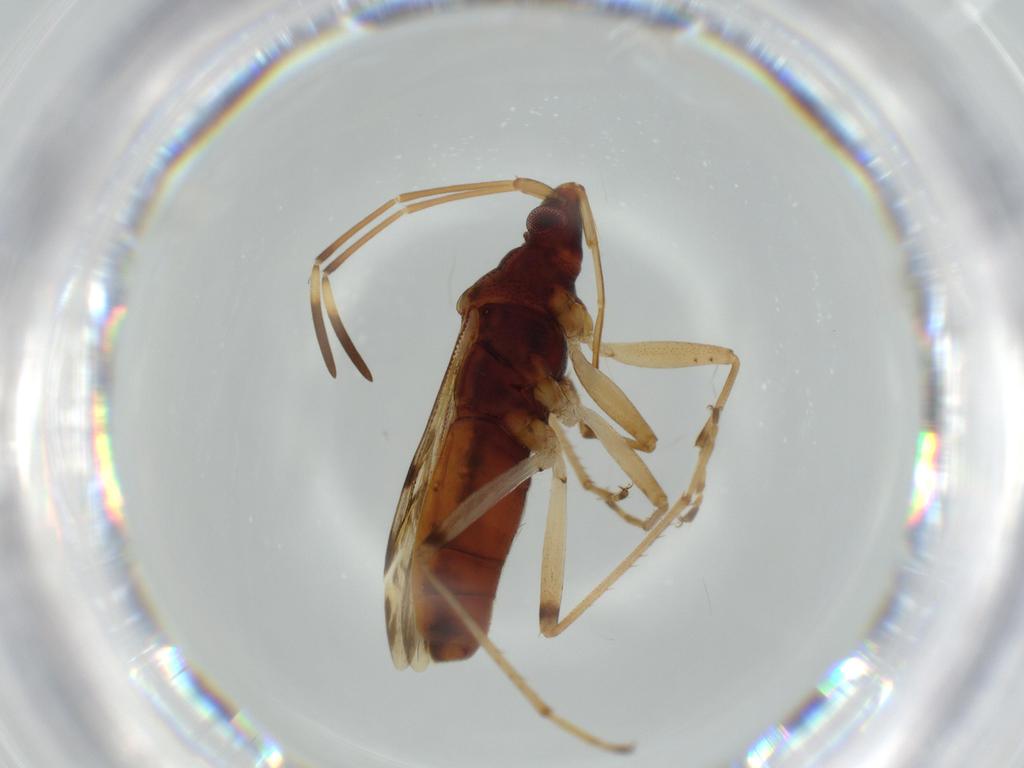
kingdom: Animalia
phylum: Arthropoda
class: Insecta
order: Hemiptera
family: Rhyparochromidae
